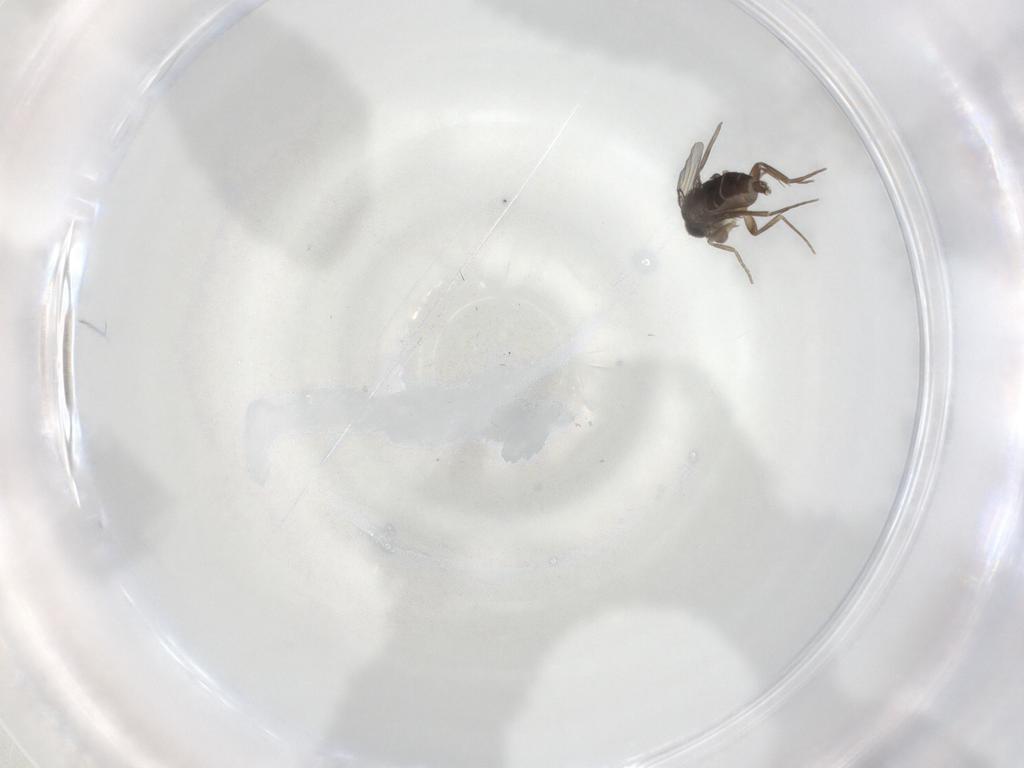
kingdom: Animalia
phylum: Arthropoda
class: Insecta
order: Diptera
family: Phoridae
